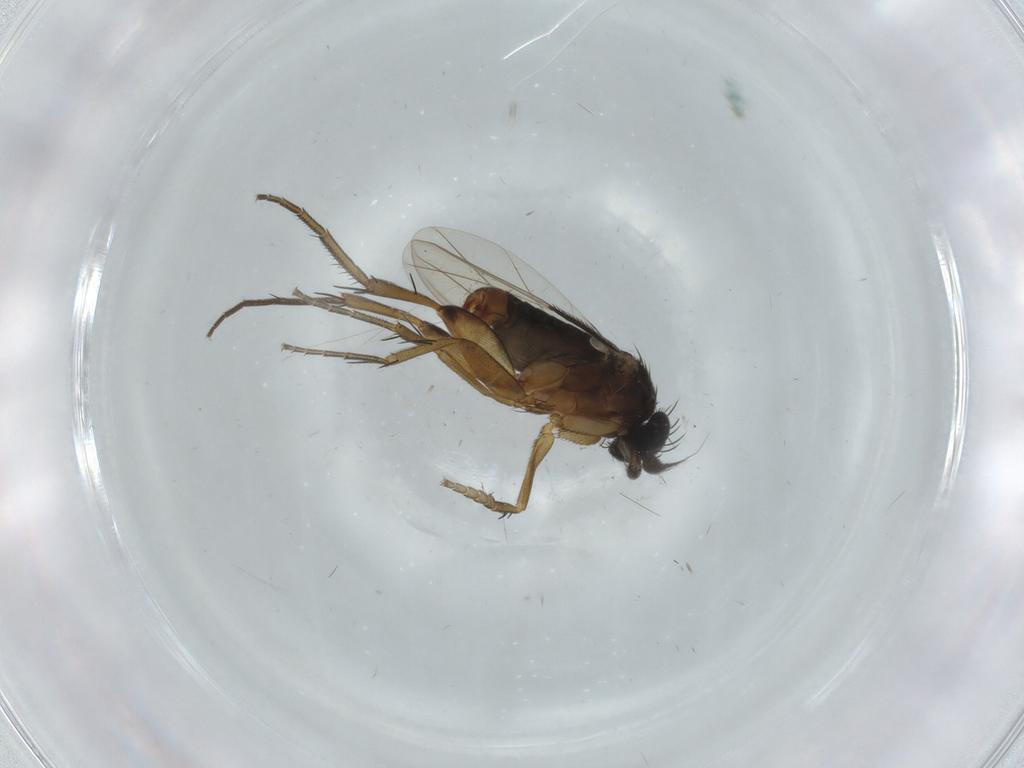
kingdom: Animalia
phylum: Arthropoda
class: Insecta
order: Diptera
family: Phoridae
